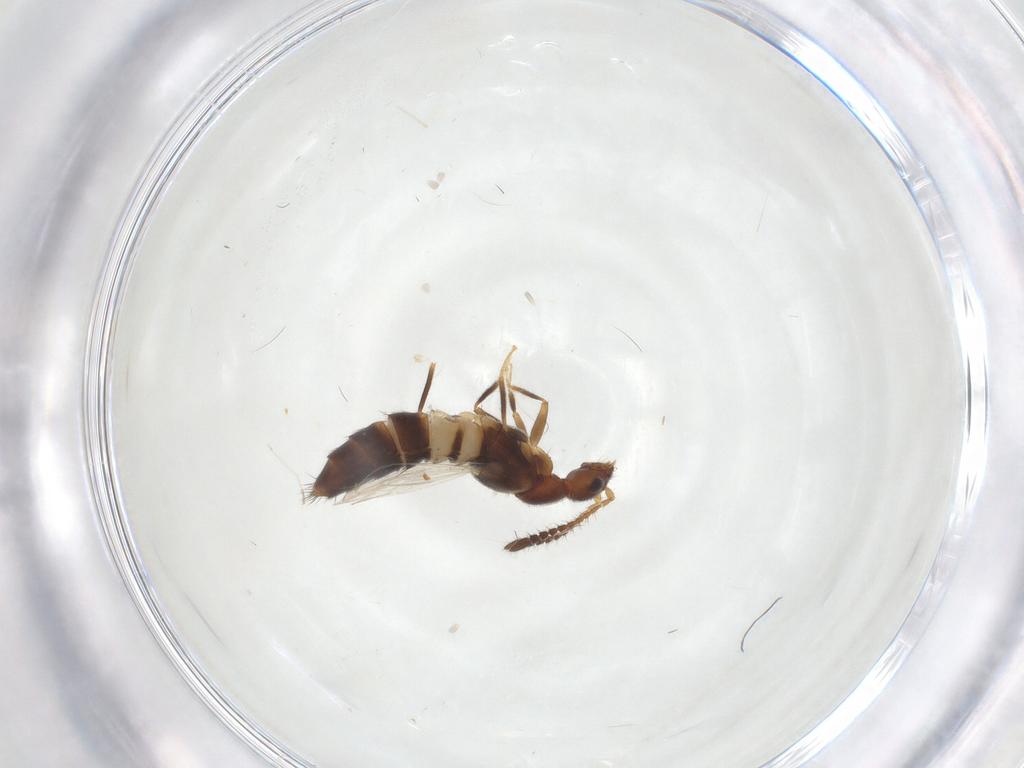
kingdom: Animalia
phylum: Arthropoda
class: Insecta
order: Coleoptera
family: Staphylinidae
